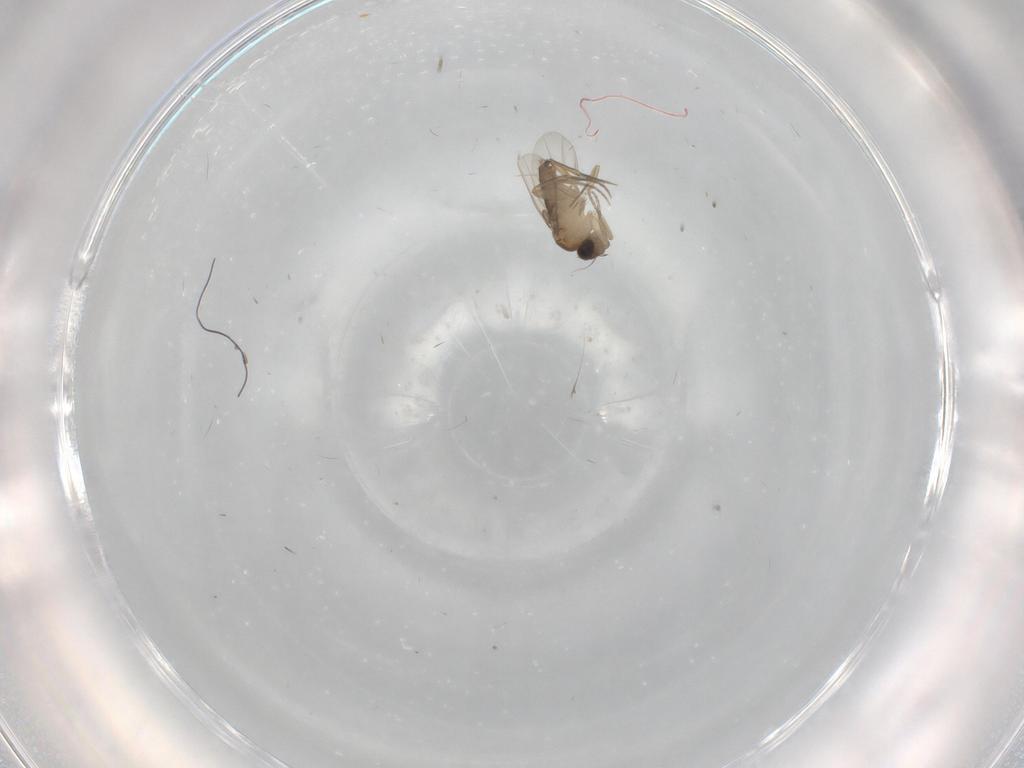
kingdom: Animalia
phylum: Arthropoda
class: Insecta
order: Diptera
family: Phoridae
